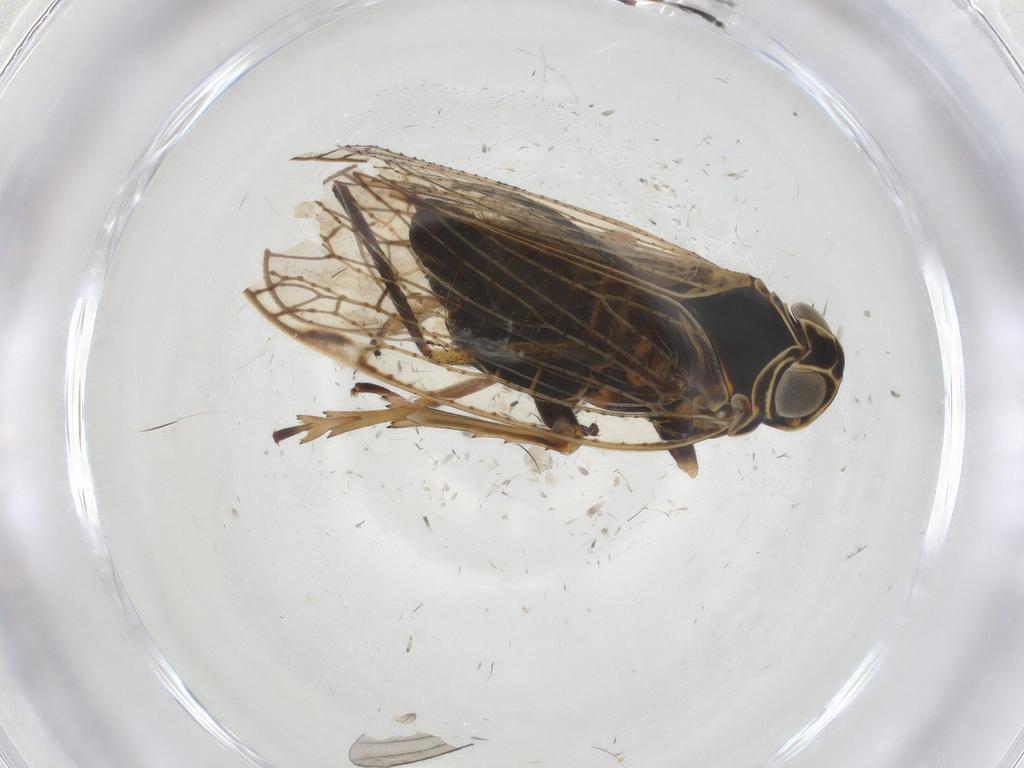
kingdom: Animalia
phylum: Arthropoda
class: Insecta
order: Hemiptera
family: Cixiidae
